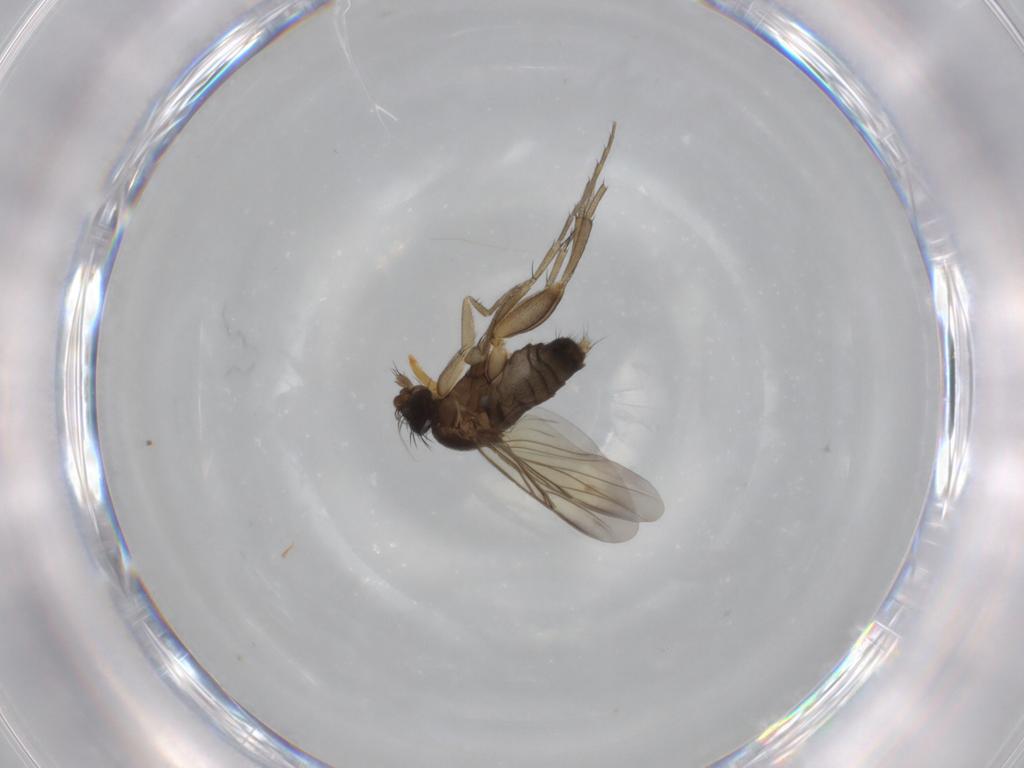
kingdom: Animalia
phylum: Arthropoda
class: Insecta
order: Diptera
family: Phoridae
